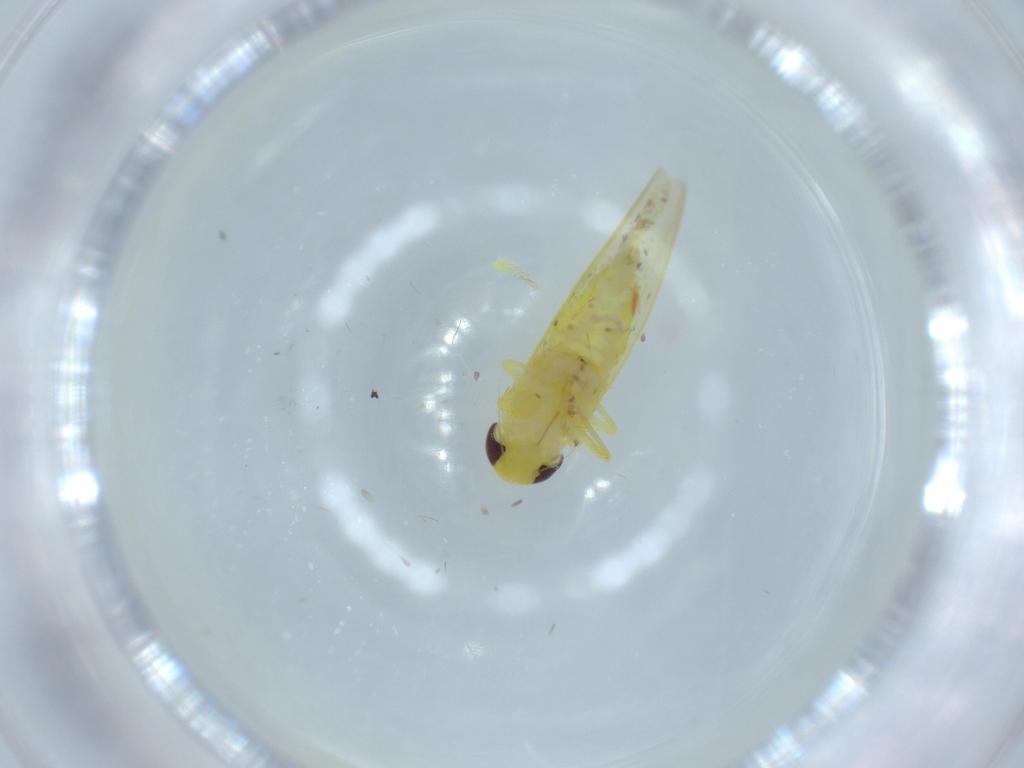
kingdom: Animalia
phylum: Arthropoda
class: Insecta
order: Hemiptera
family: Cicadellidae
